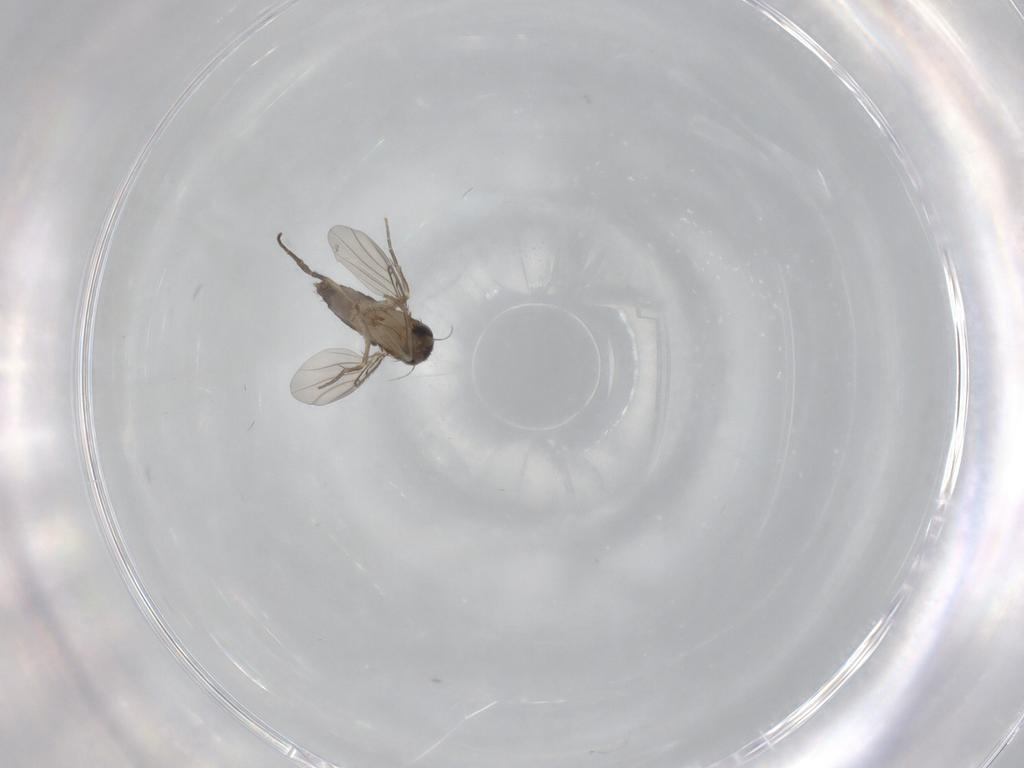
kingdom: Animalia
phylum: Arthropoda
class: Insecta
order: Diptera
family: Phoridae
